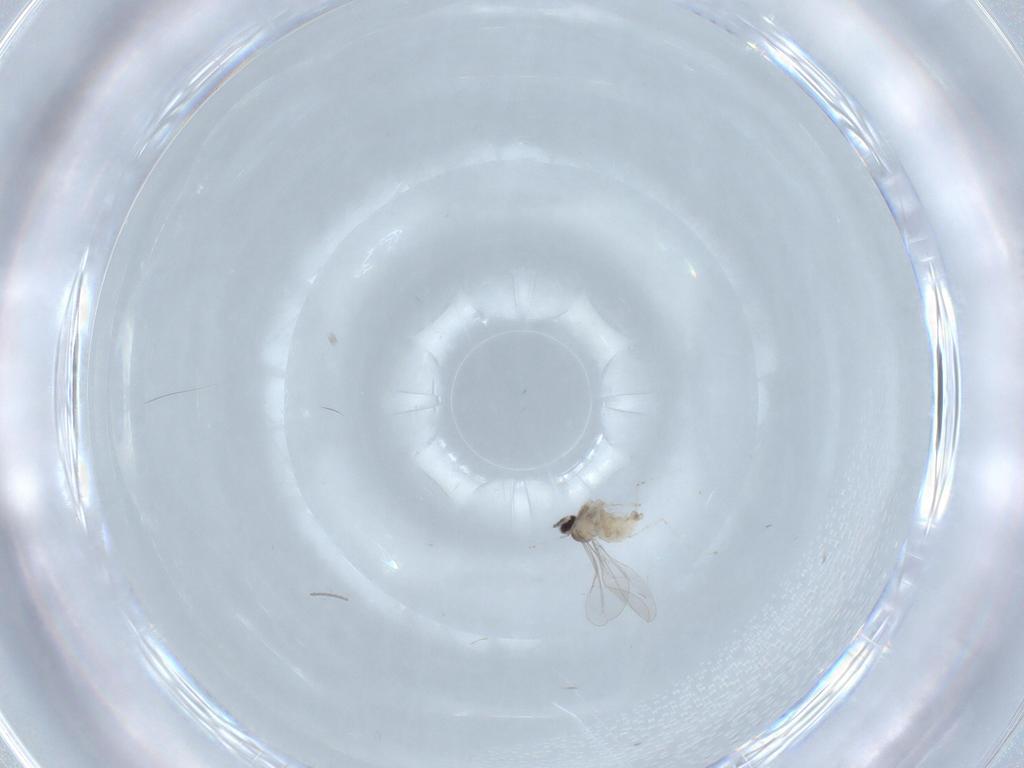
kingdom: Animalia
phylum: Arthropoda
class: Insecta
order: Diptera
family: Cecidomyiidae
